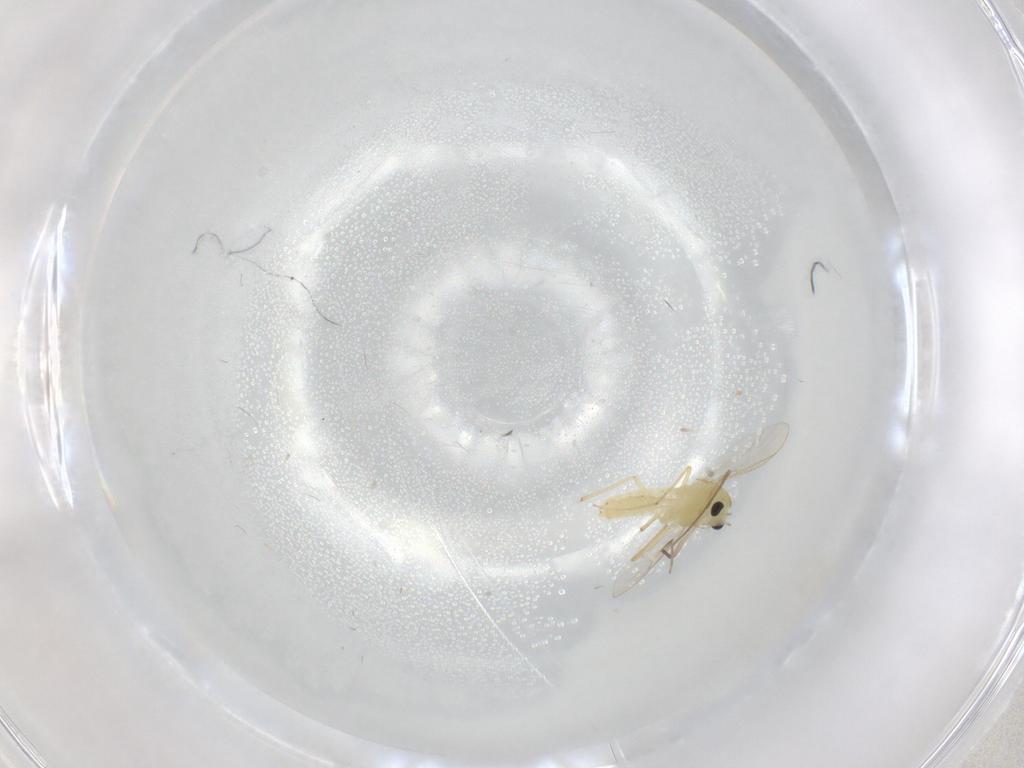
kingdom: Animalia
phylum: Arthropoda
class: Insecta
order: Diptera
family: Chironomidae
